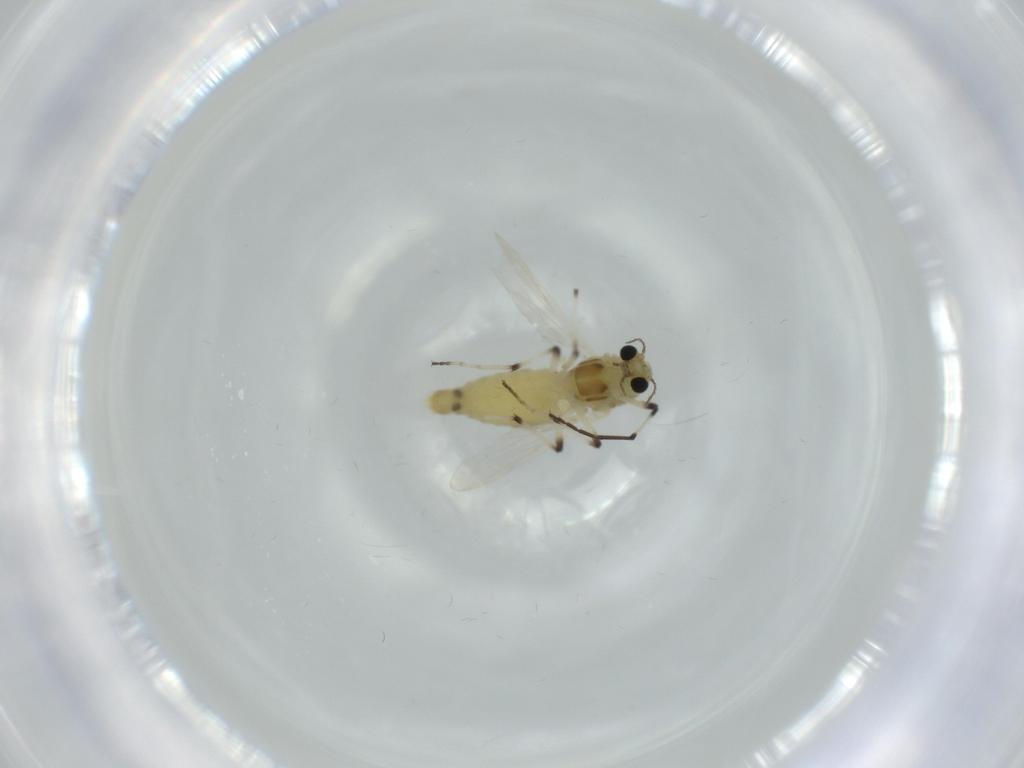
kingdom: Animalia
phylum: Arthropoda
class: Insecta
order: Diptera
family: Chironomidae
